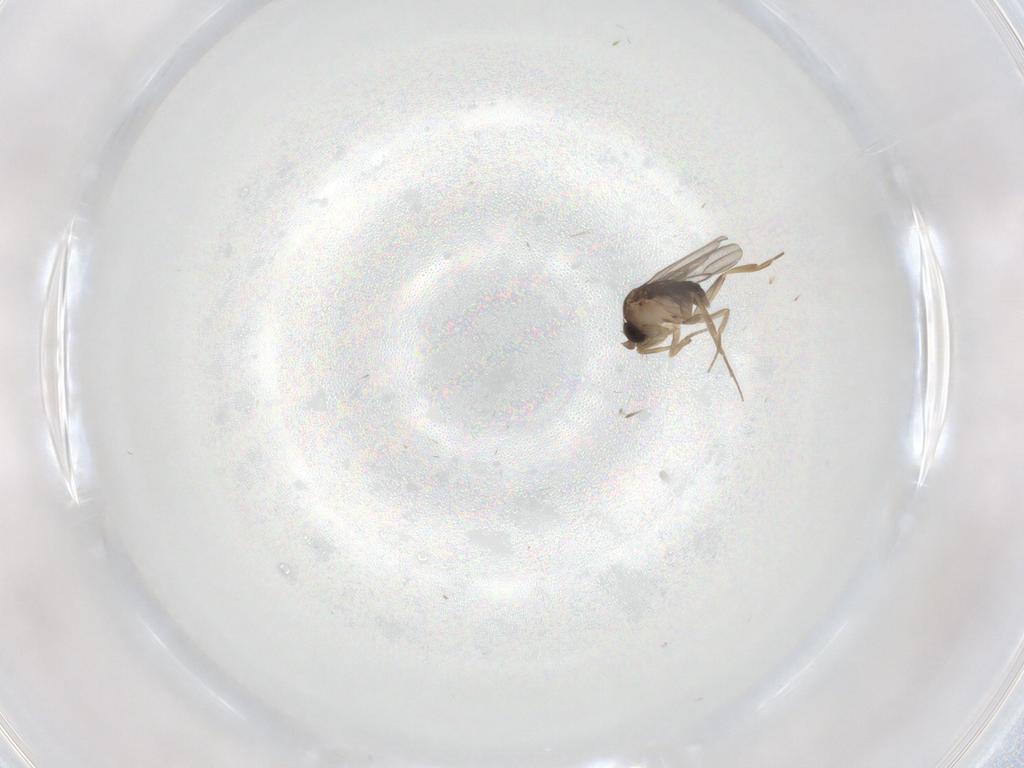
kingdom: Animalia
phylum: Arthropoda
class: Insecta
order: Diptera
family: Phoridae
